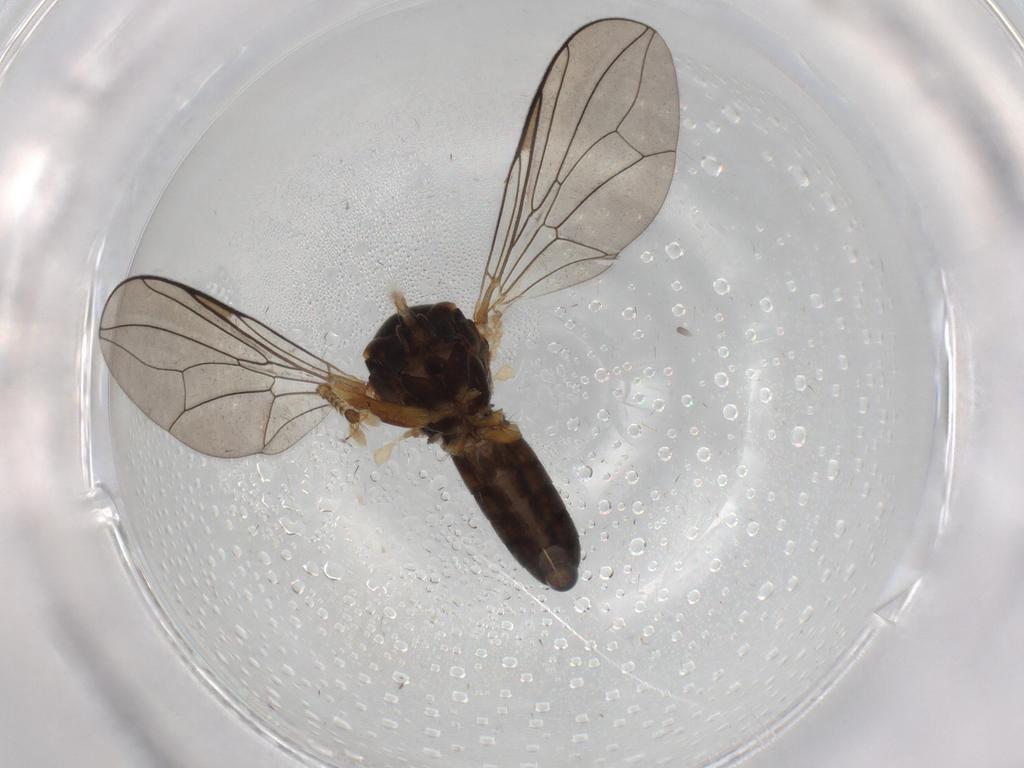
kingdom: Animalia
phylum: Arthropoda
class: Insecta
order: Diptera
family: Pipunculidae
